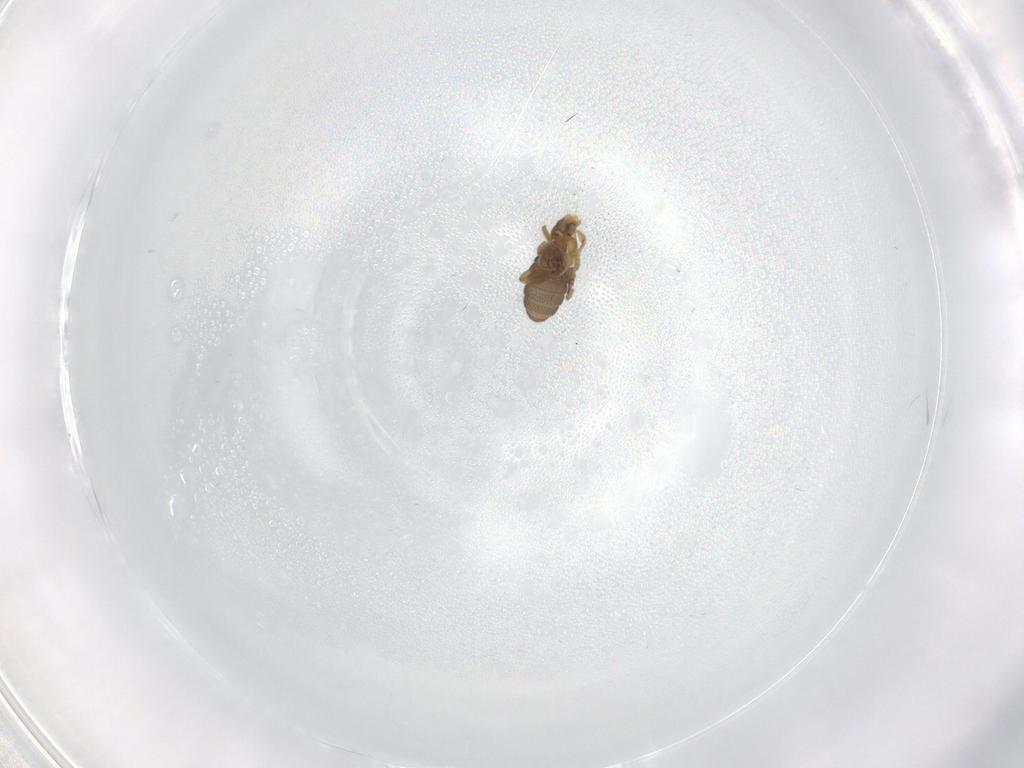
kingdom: Animalia
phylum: Arthropoda
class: Insecta
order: Diptera
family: Phoridae
